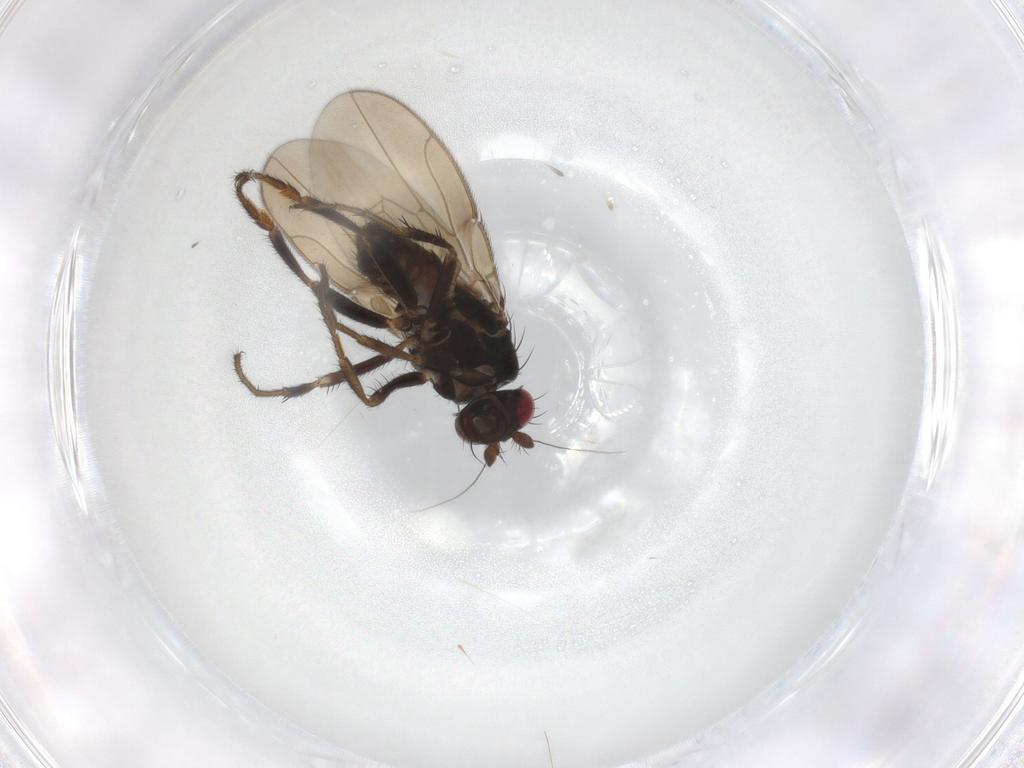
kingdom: Animalia
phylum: Arthropoda
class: Insecta
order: Diptera
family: Sphaeroceridae
